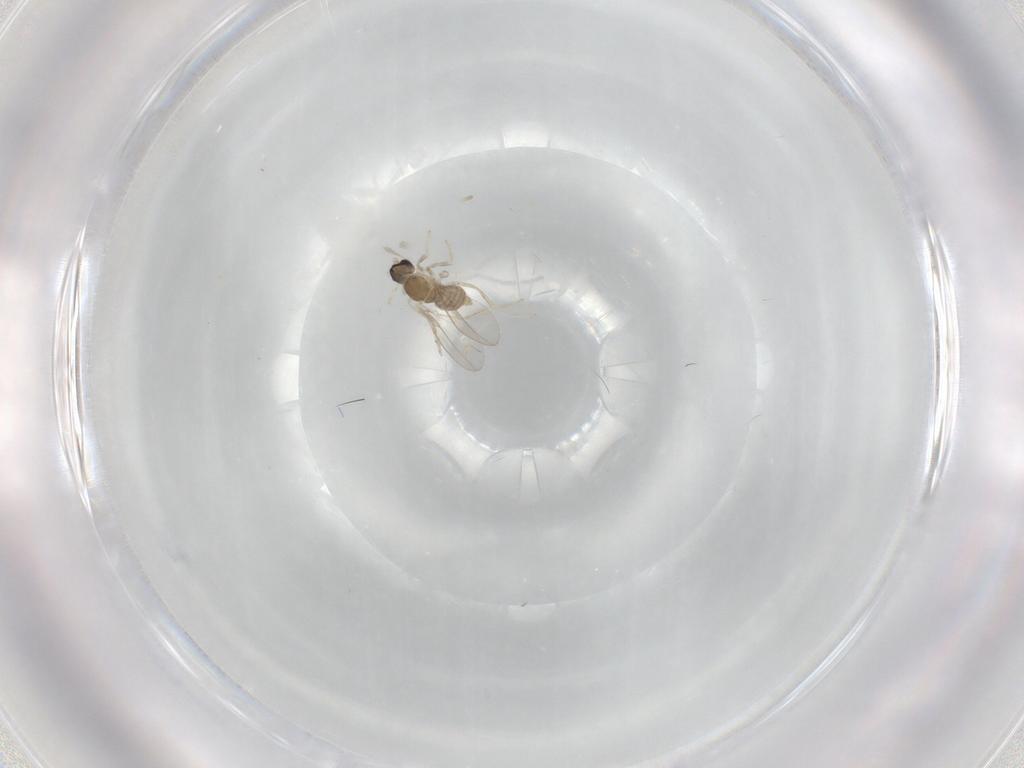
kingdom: Animalia
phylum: Arthropoda
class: Insecta
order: Diptera
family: Cecidomyiidae
